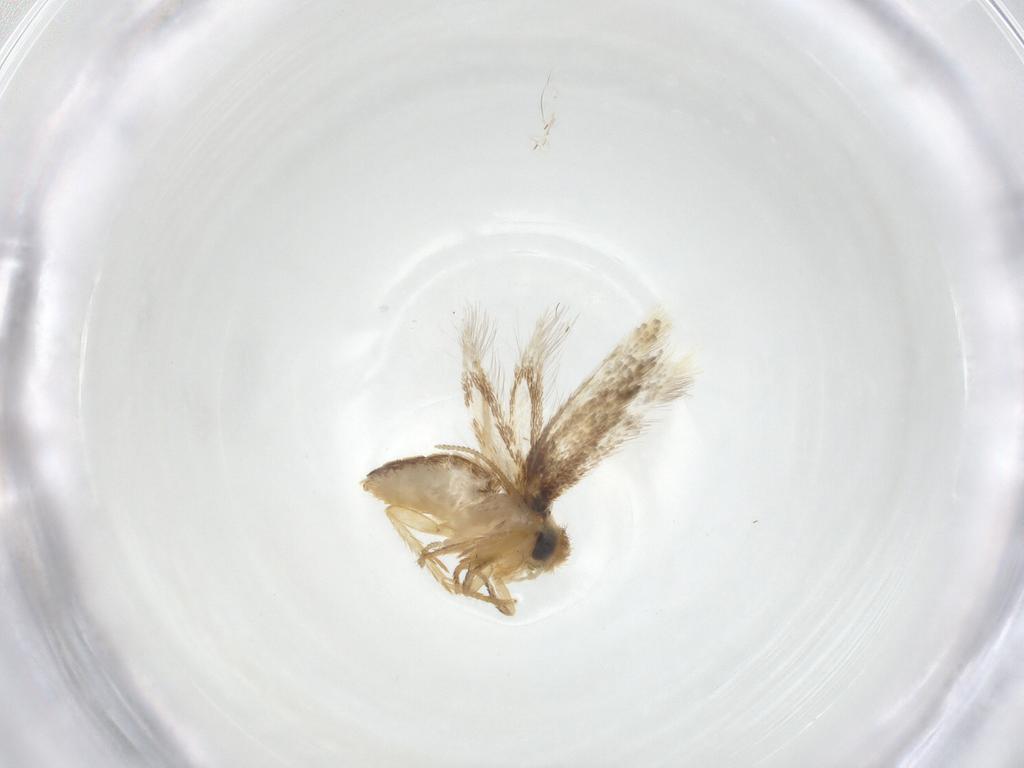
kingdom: Animalia
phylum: Arthropoda
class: Insecta
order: Lepidoptera
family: Nepticulidae
